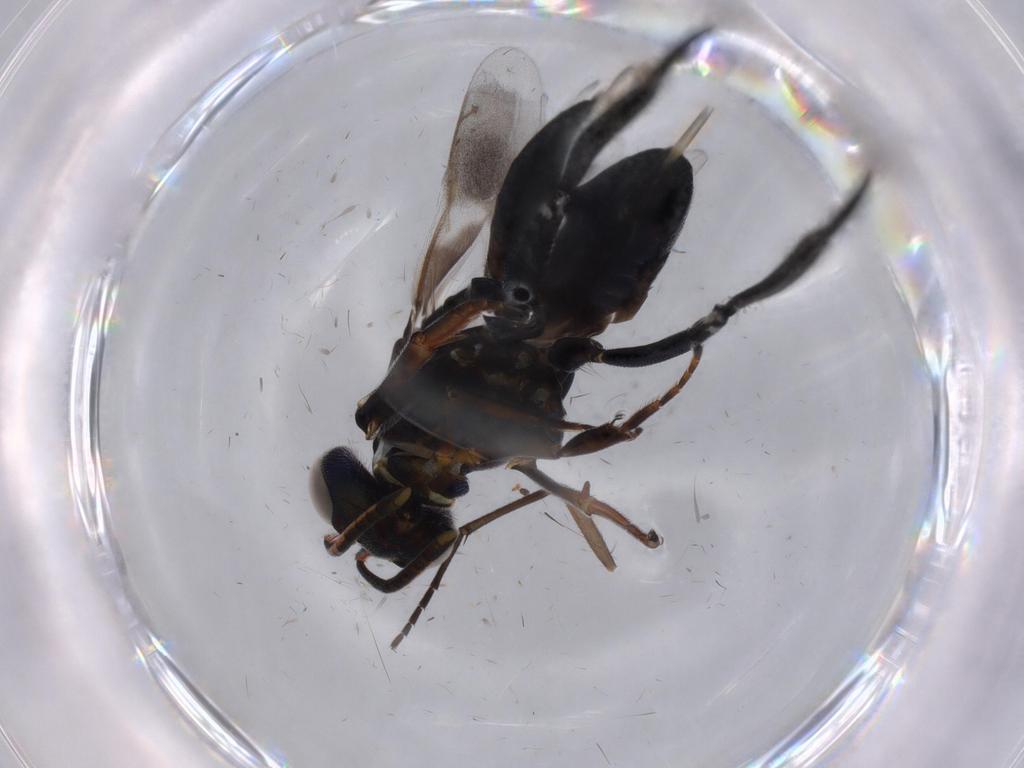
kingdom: Animalia
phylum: Arthropoda
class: Insecta
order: Hymenoptera
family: Eupelmidae
